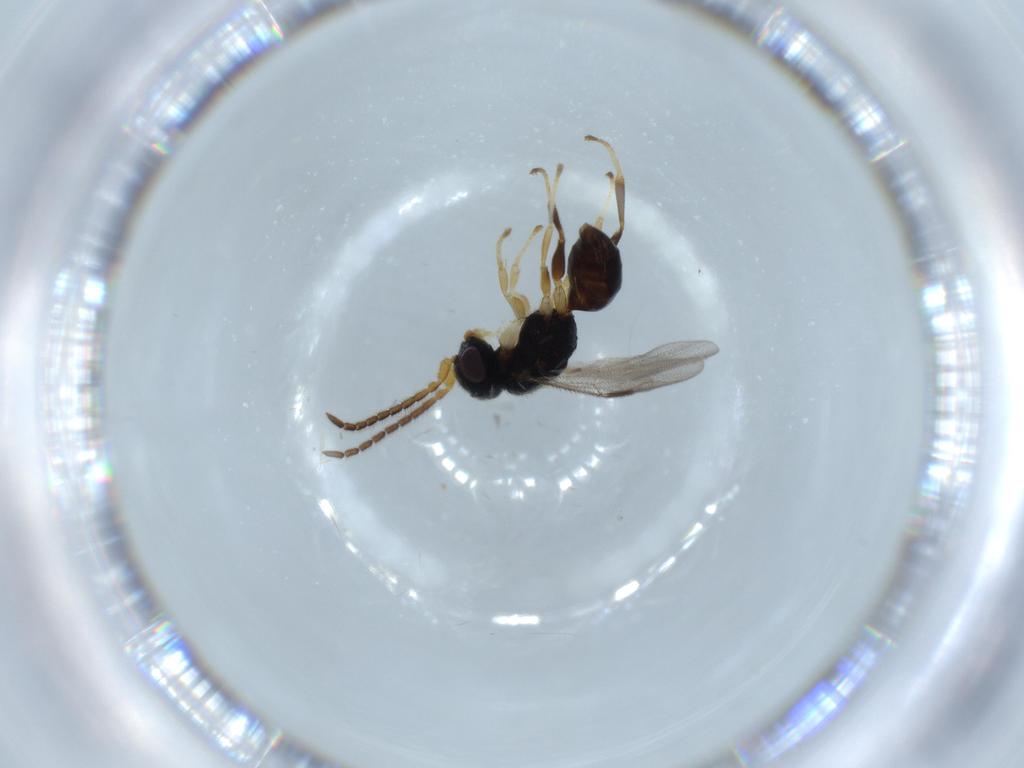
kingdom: Animalia
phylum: Arthropoda
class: Insecta
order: Hymenoptera
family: Dryinidae
